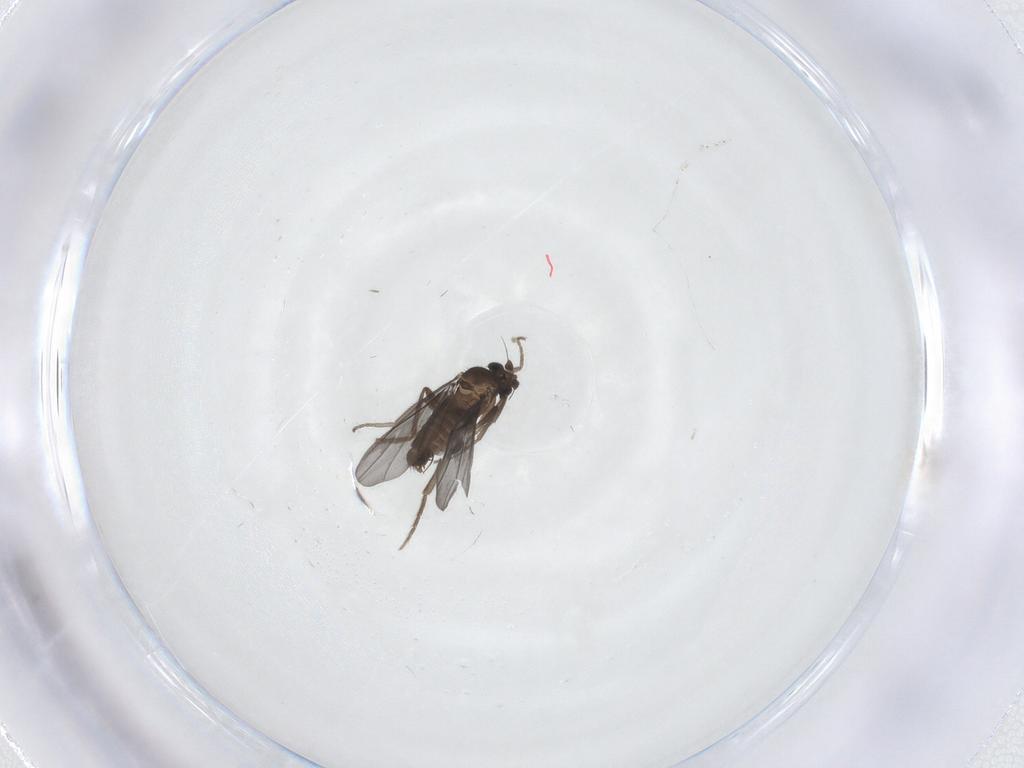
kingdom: Animalia
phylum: Arthropoda
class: Insecta
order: Diptera
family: Phoridae
